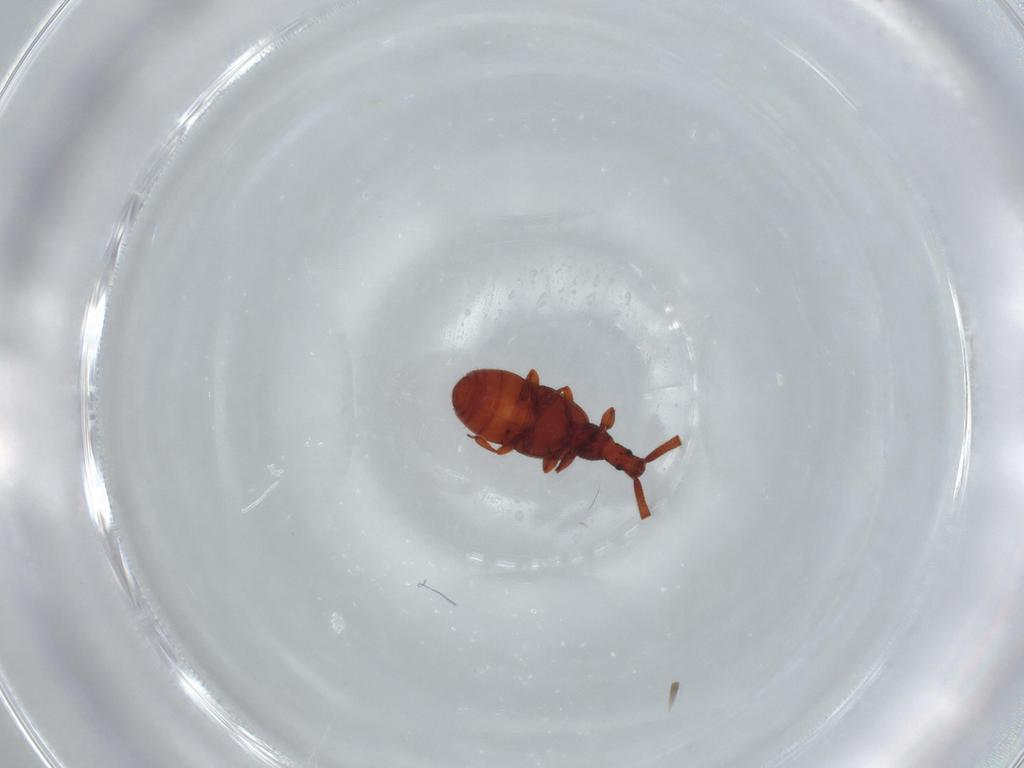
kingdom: Animalia
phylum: Arthropoda
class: Insecta
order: Coleoptera
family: Staphylinidae
